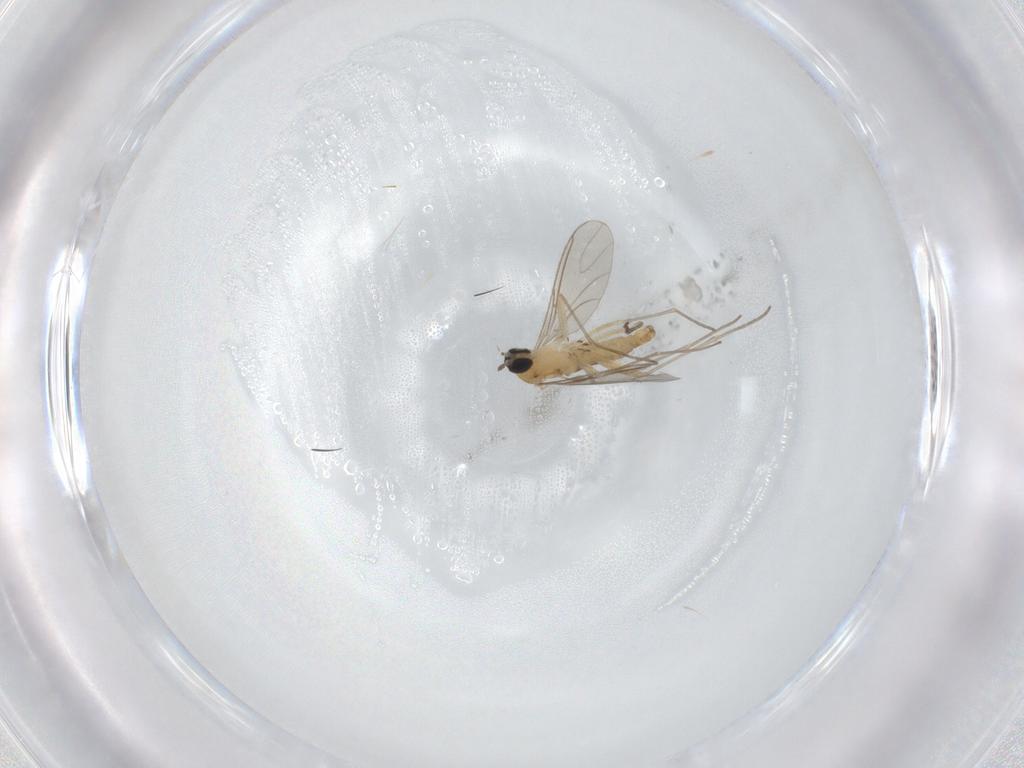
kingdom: Animalia
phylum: Arthropoda
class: Insecta
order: Diptera
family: Sciaridae
